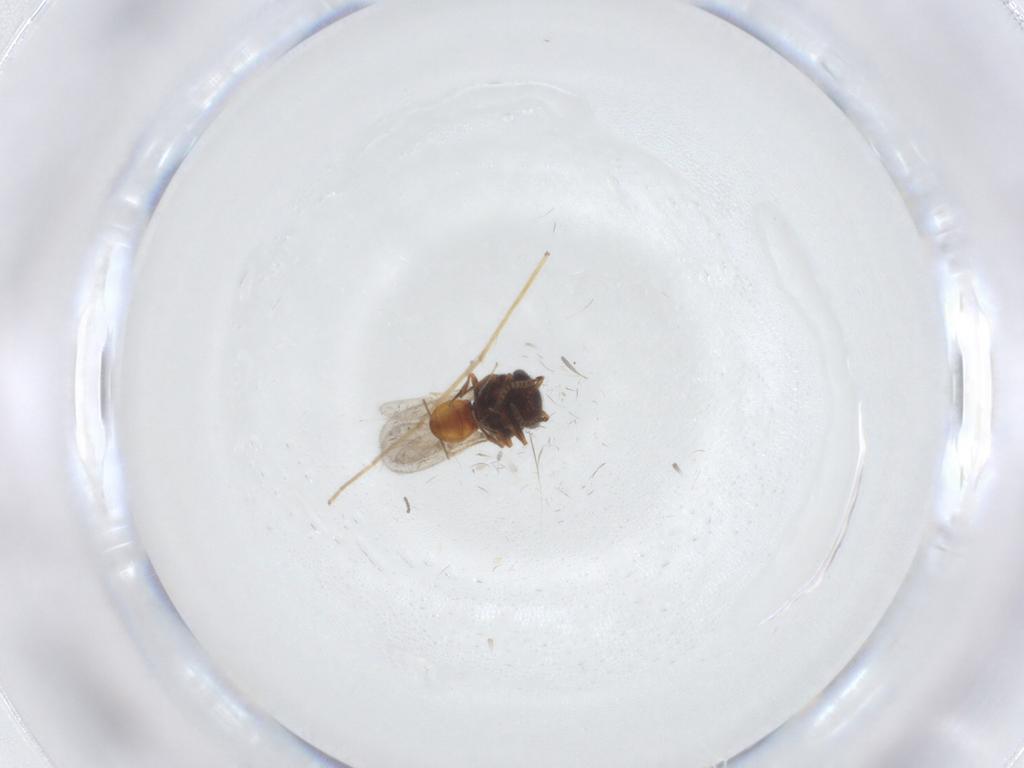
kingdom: Animalia
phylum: Arthropoda
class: Insecta
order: Hymenoptera
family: Scelionidae
